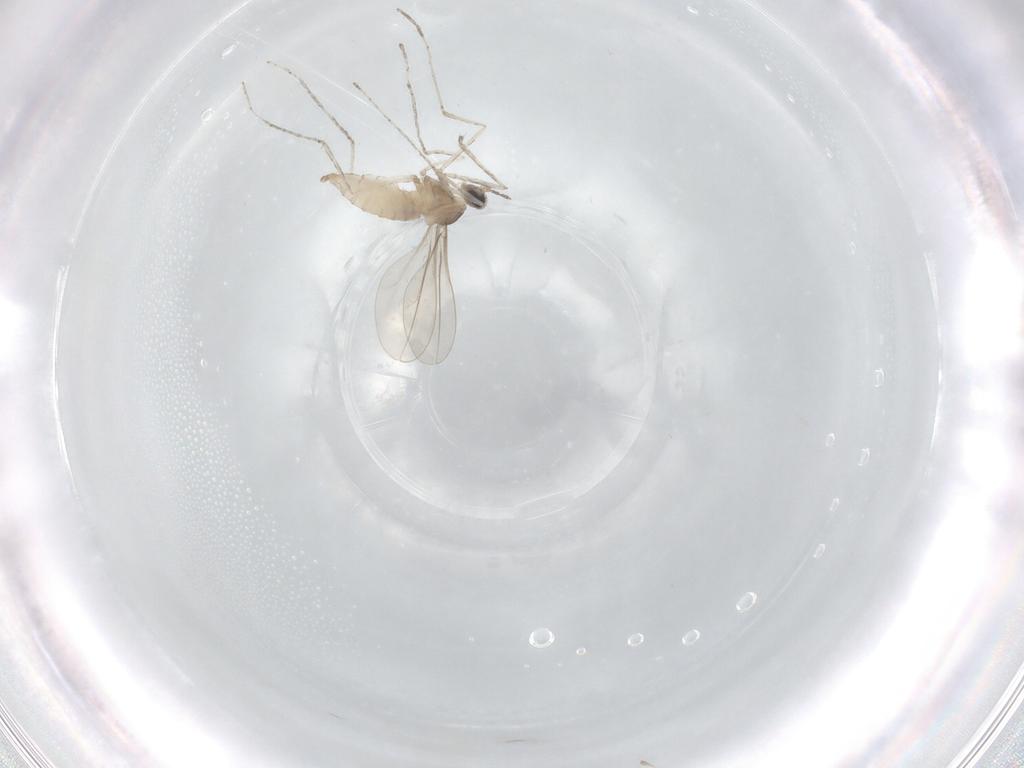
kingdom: Animalia
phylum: Arthropoda
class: Insecta
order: Diptera
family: Cecidomyiidae
